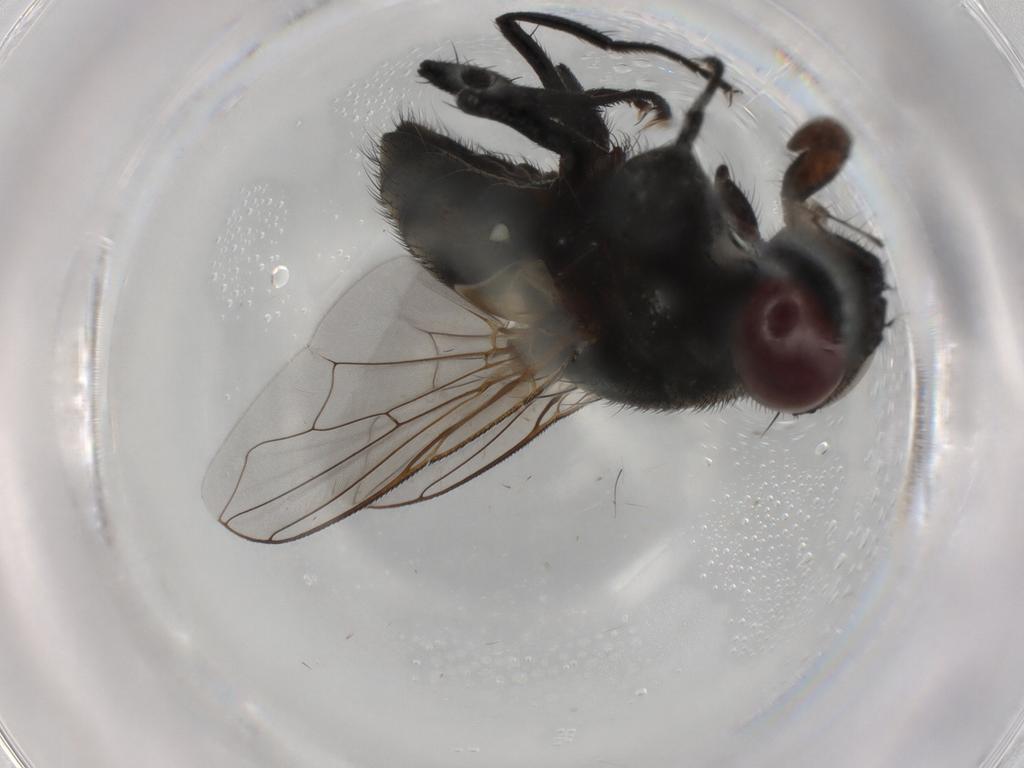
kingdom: Animalia
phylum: Arthropoda
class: Insecta
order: Diptera
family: Muscidae
